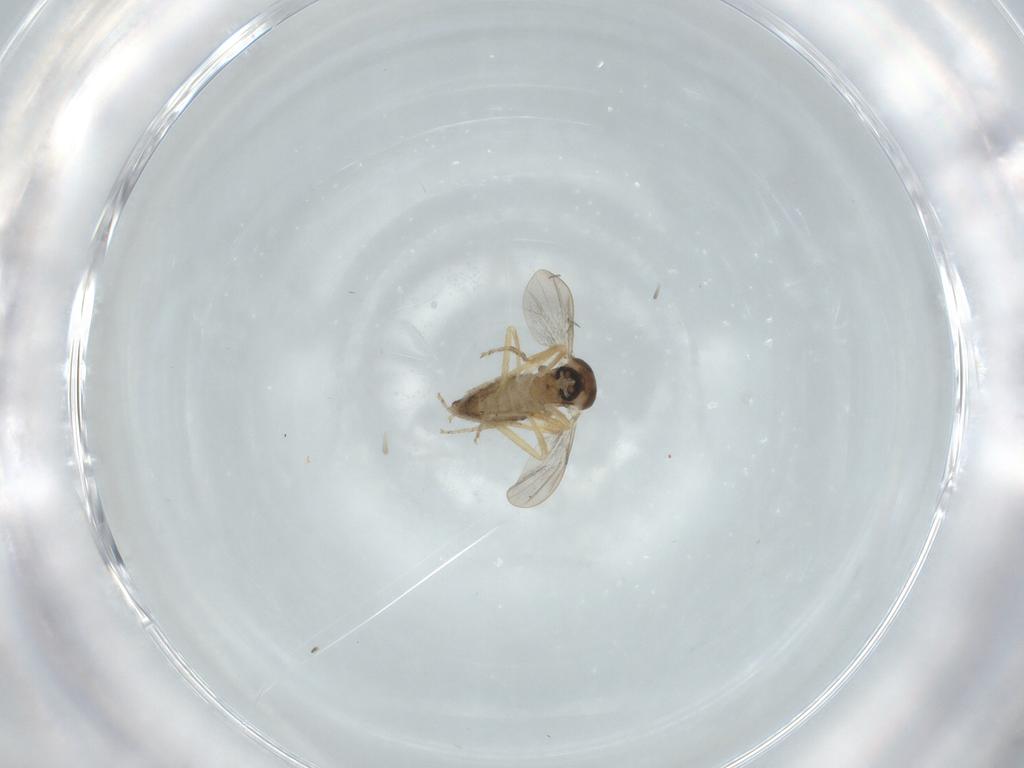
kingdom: Animalia
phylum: Arthropoda
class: Insecta
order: Diptera
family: Ceratopogonidae
